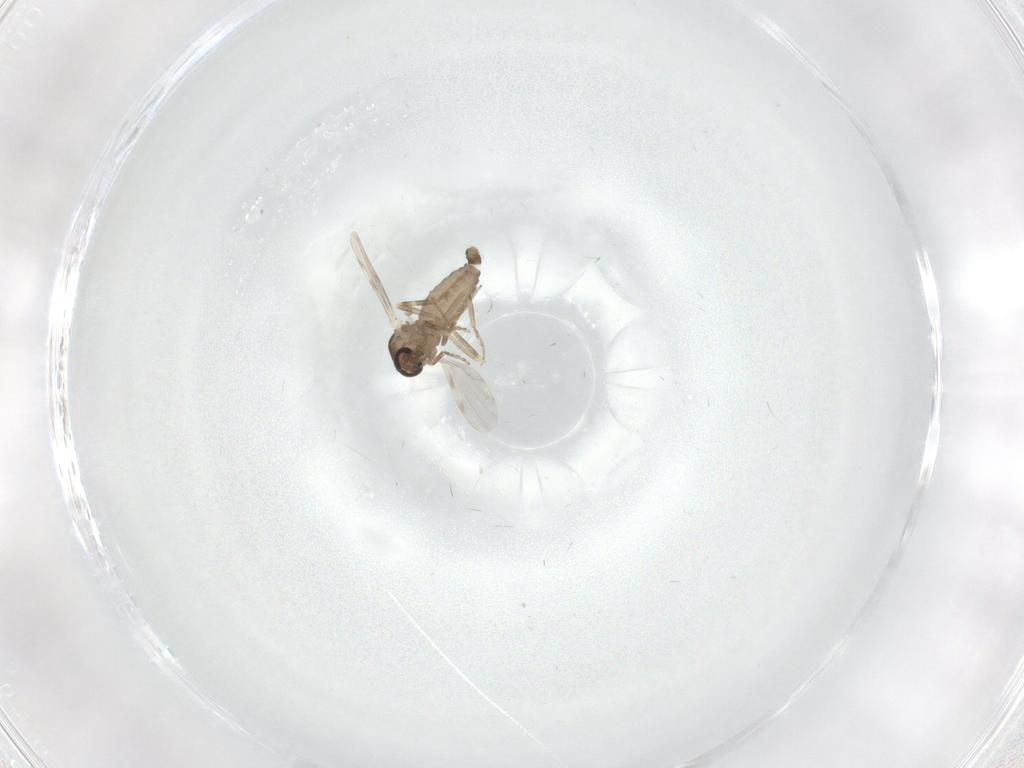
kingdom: Animalia
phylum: Arthropoda
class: Insecta
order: Diptera
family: Ceratopogonidae
